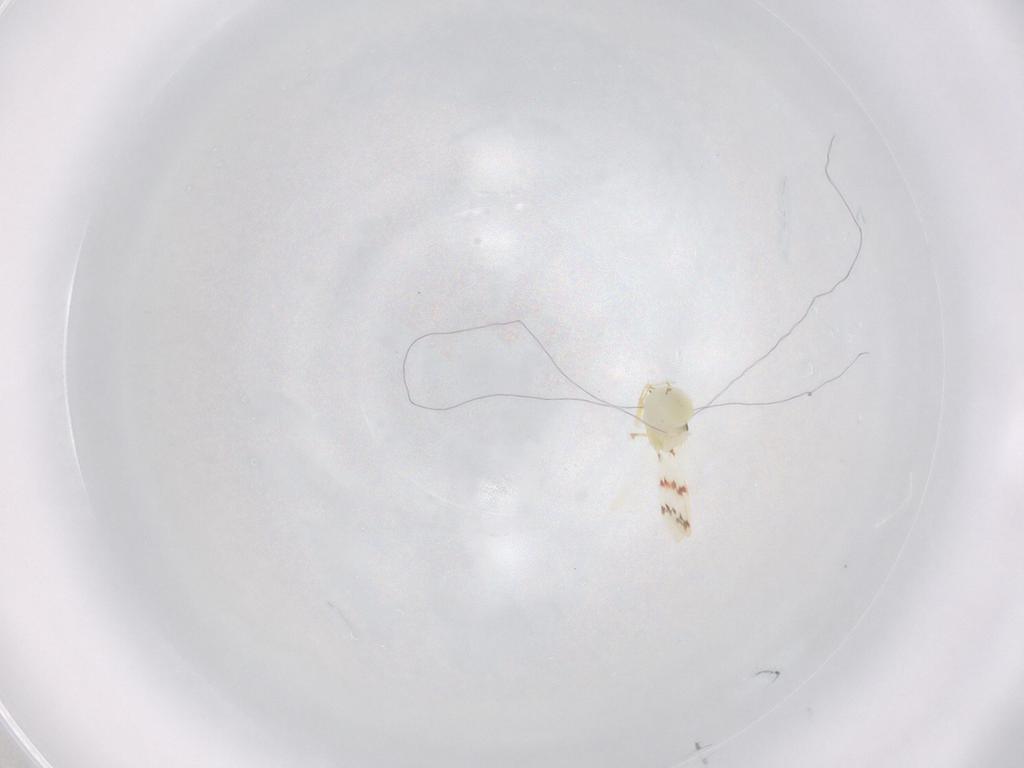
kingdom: Animalia
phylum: Arthropoda
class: Insecta
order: Hemiptera
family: Aleyrodidae
